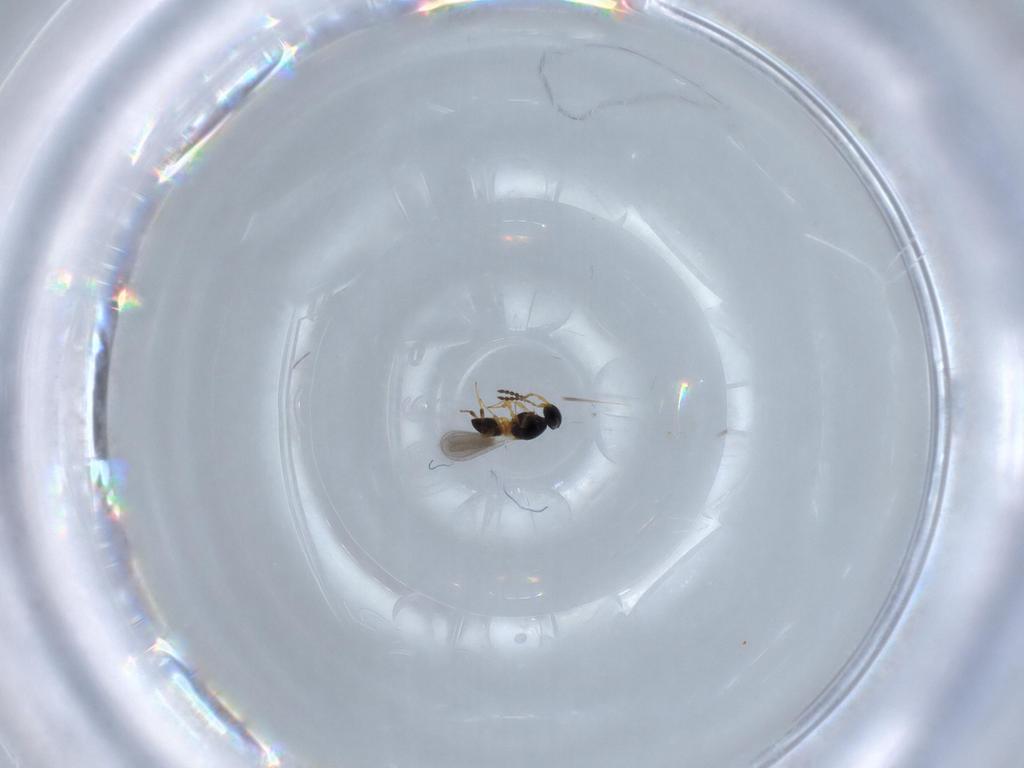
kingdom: Animalia
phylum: Arthropoda
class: Insecta
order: Hymenoptera
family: Platygastridae
